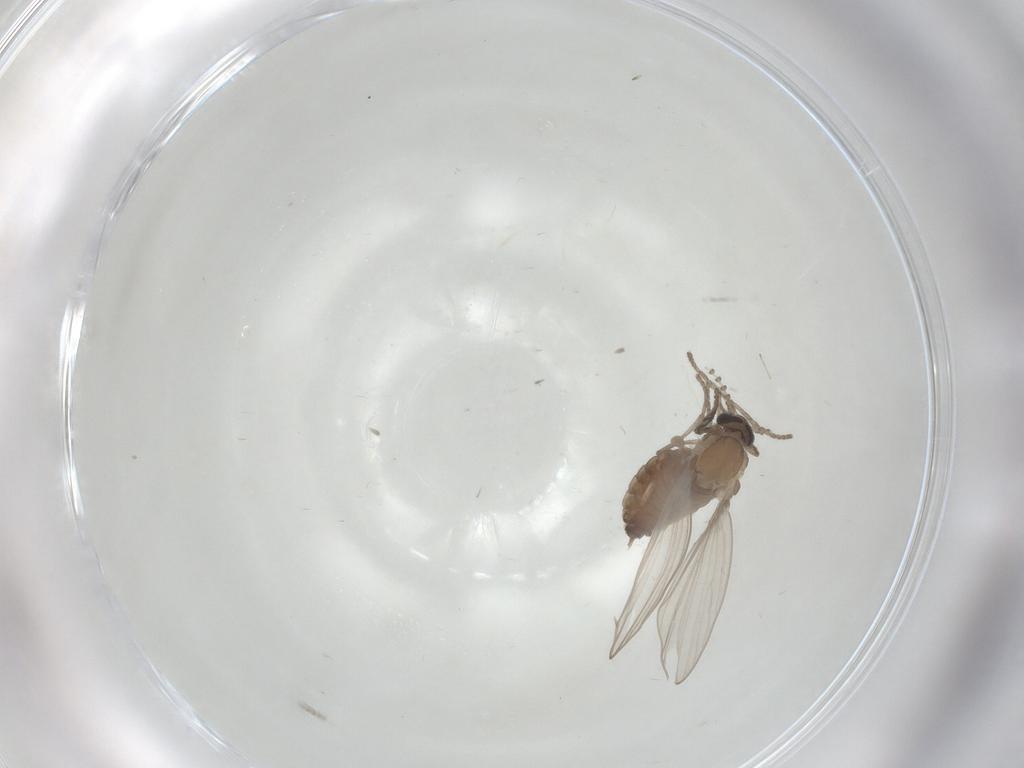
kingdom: Animalia
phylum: Arthropoda
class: Insecta
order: Diptera
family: Psychodidae
